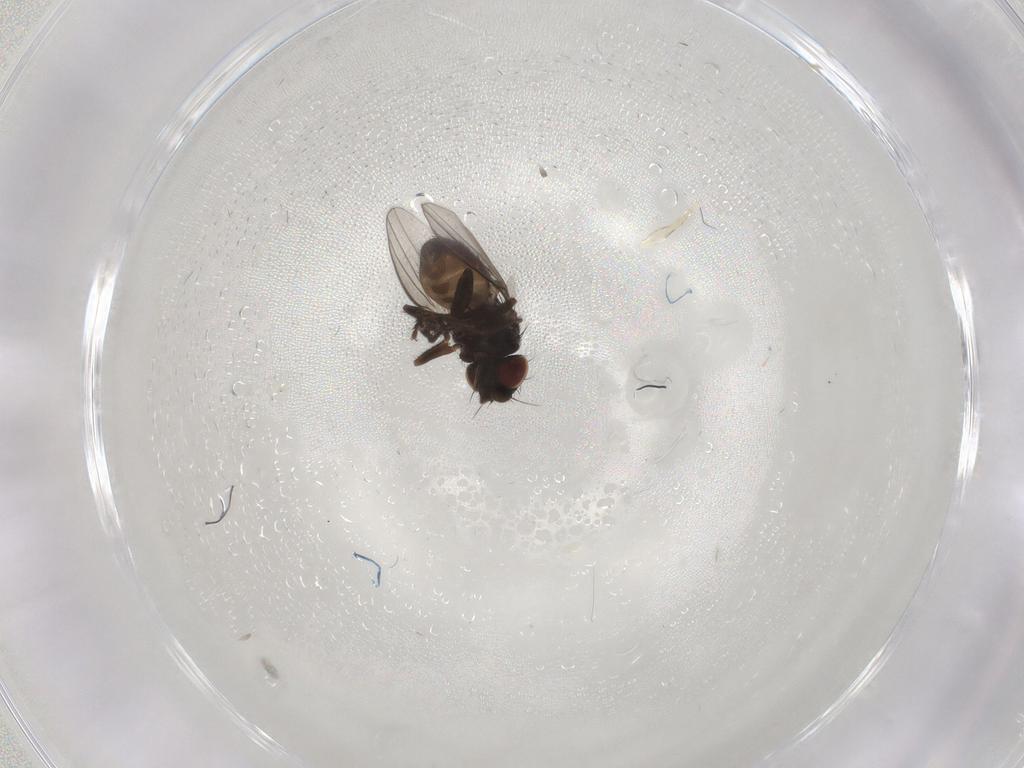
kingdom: Animalia
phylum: Arthropoda
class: Insecta
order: Diptera
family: Milichiidae
